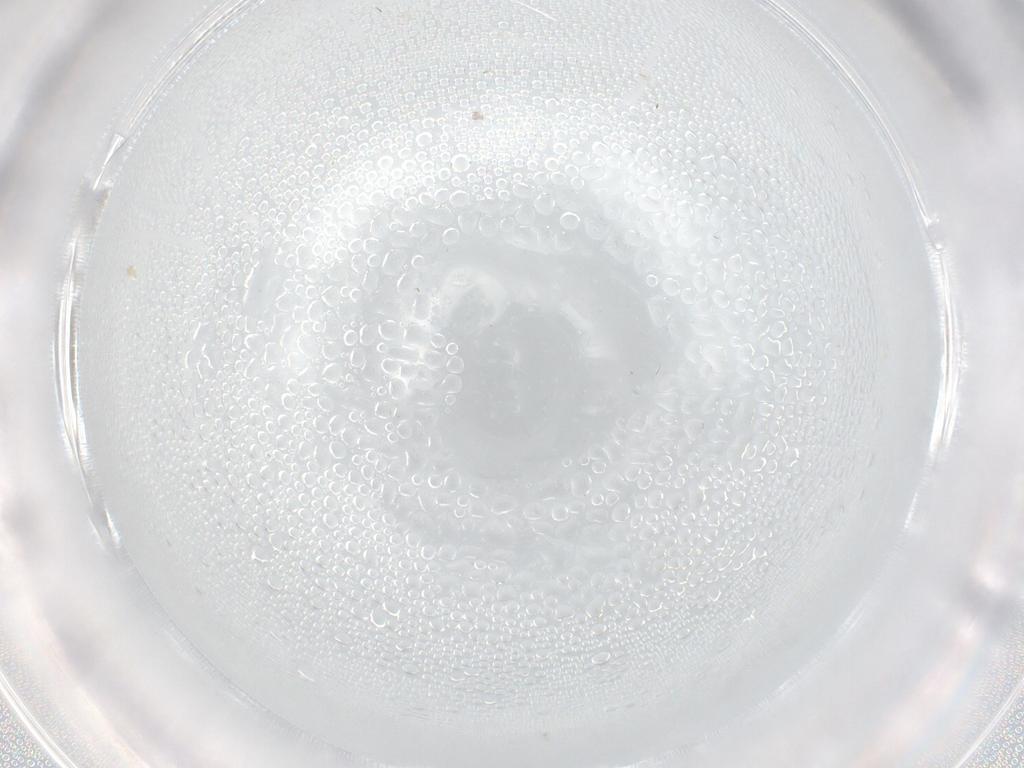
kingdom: Animalia
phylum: Arthropoda
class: Insecta
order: Diptera
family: Ceratopogonidae
